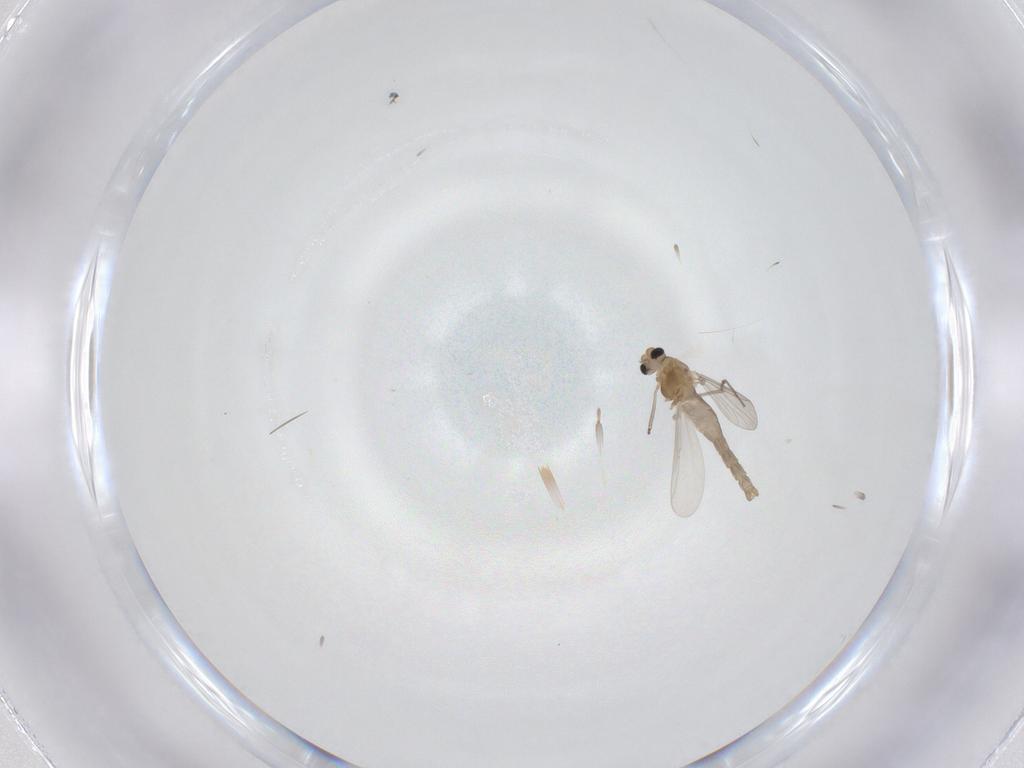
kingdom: Animalia
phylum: Arthropoda
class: Insecta
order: Diptera
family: Chironomidae
